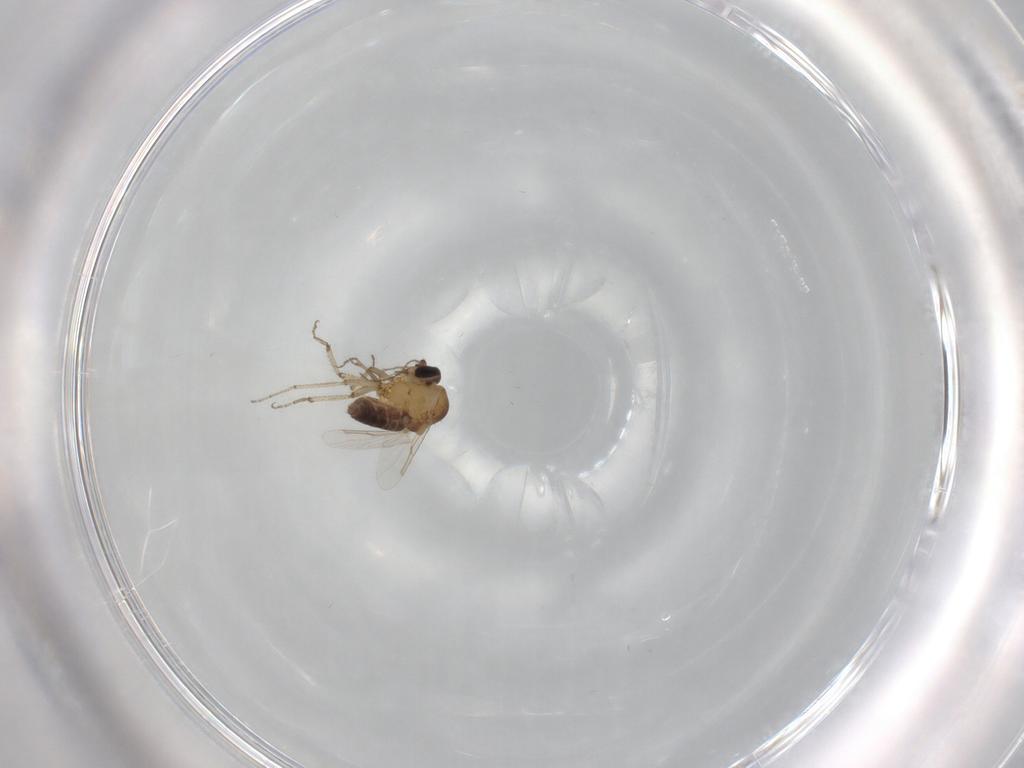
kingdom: Animalia
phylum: Arthropoda
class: Insecta
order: Diptera
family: Ceratopogonidae
